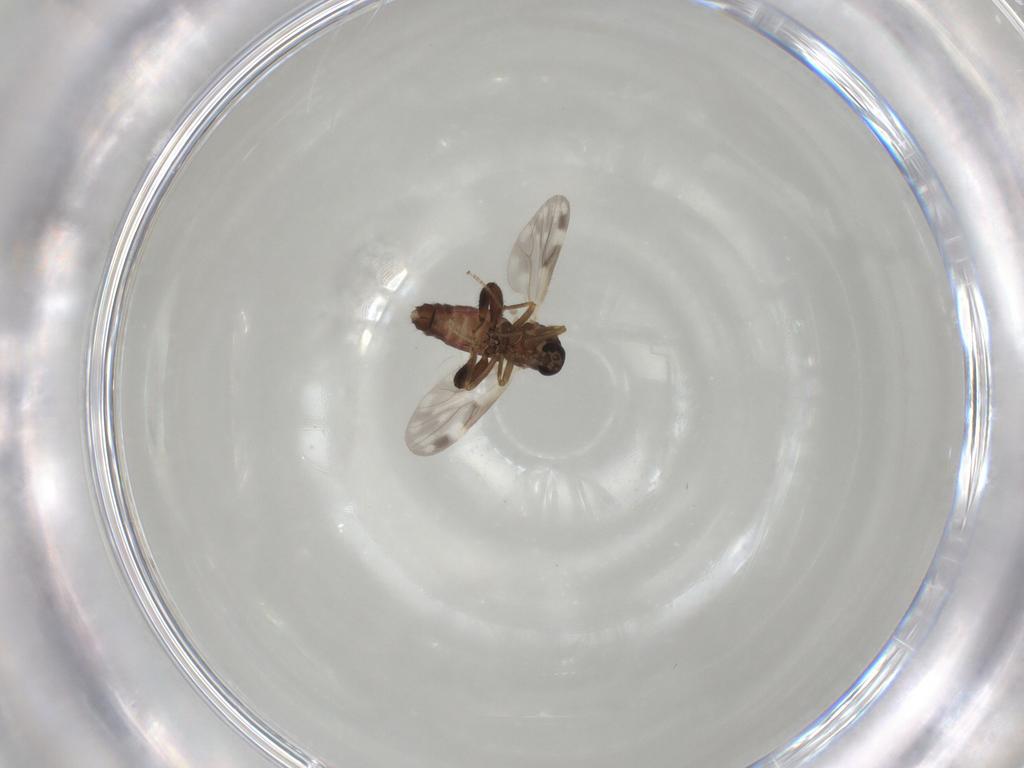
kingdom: Animalia
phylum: Arthropoda
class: Insecta
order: Diptera
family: Ceratopogonidae
